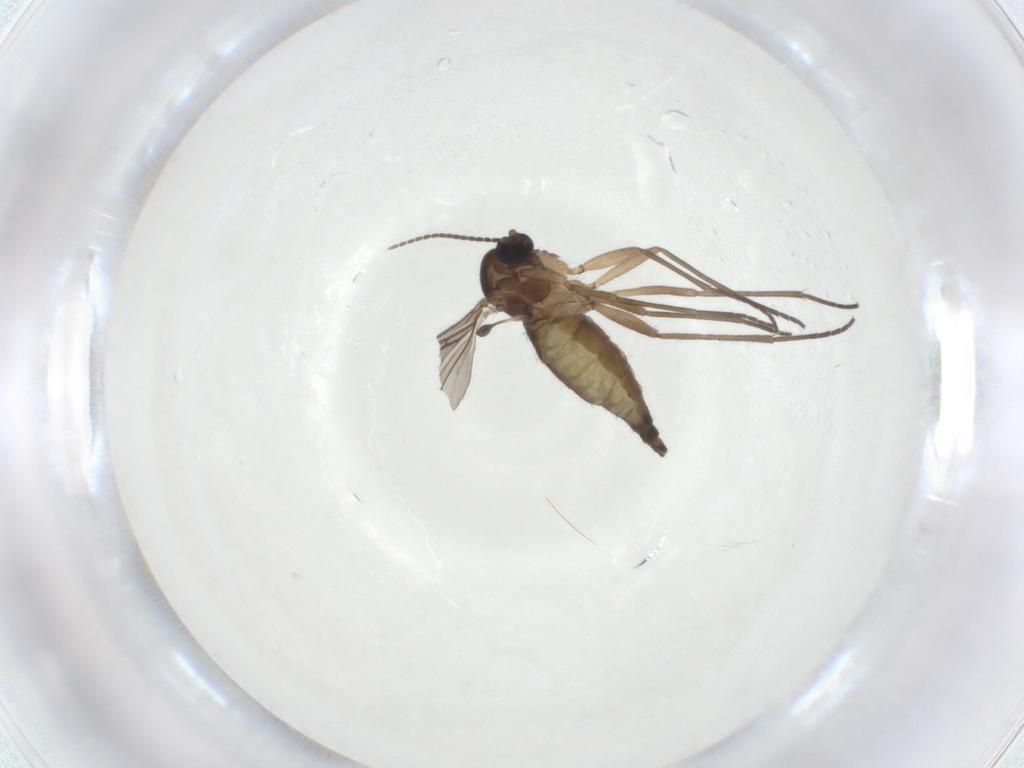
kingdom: Animalia
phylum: Arthropoda
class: Insecta
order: Diptera
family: Sciaridae
